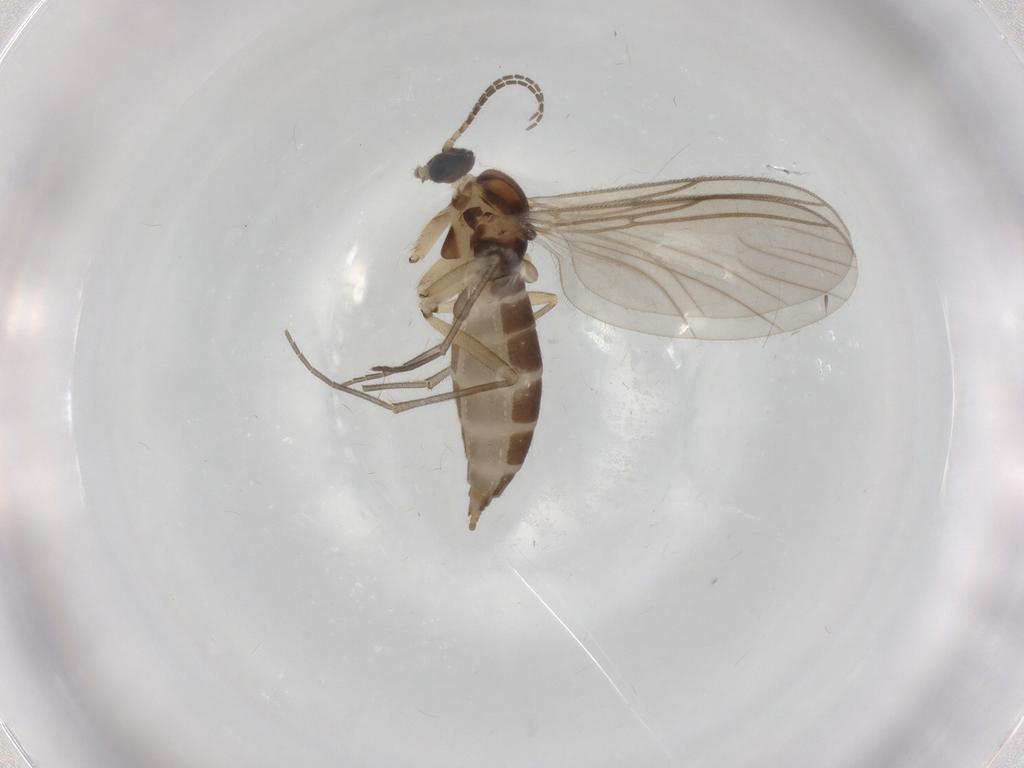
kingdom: Animalia
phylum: Arthropoda
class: Insecta
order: Diptera
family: Sciaridae
